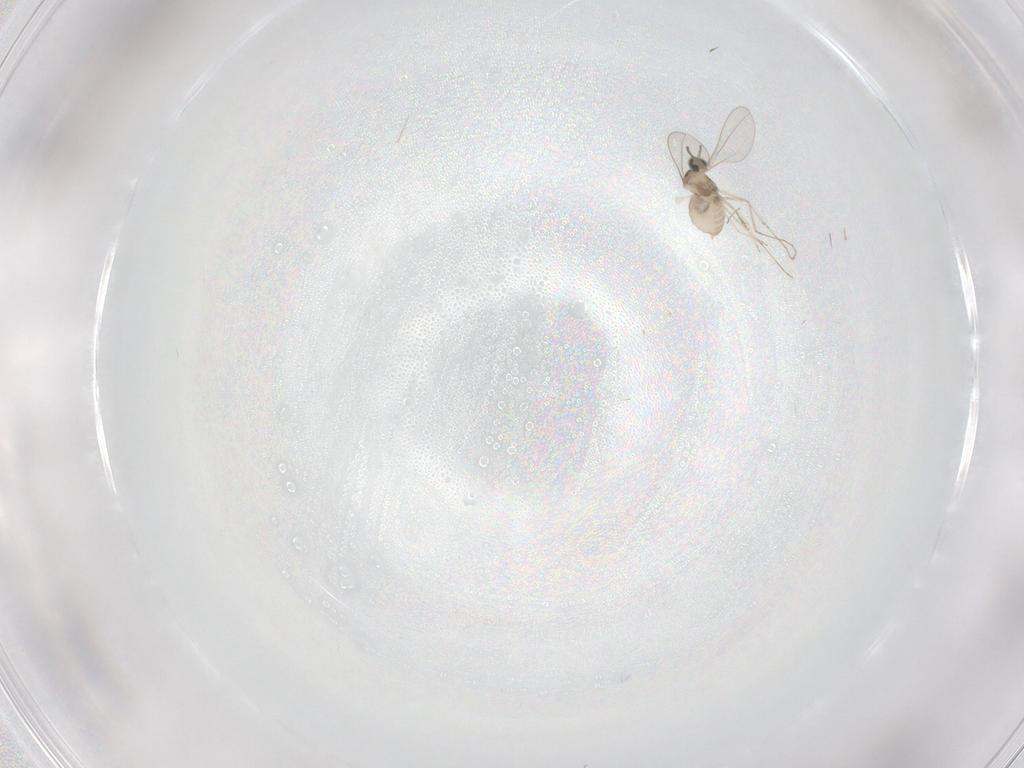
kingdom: Animalia
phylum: Arthropoda
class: Insecta
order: Diptera
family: Cecidomyiidae
